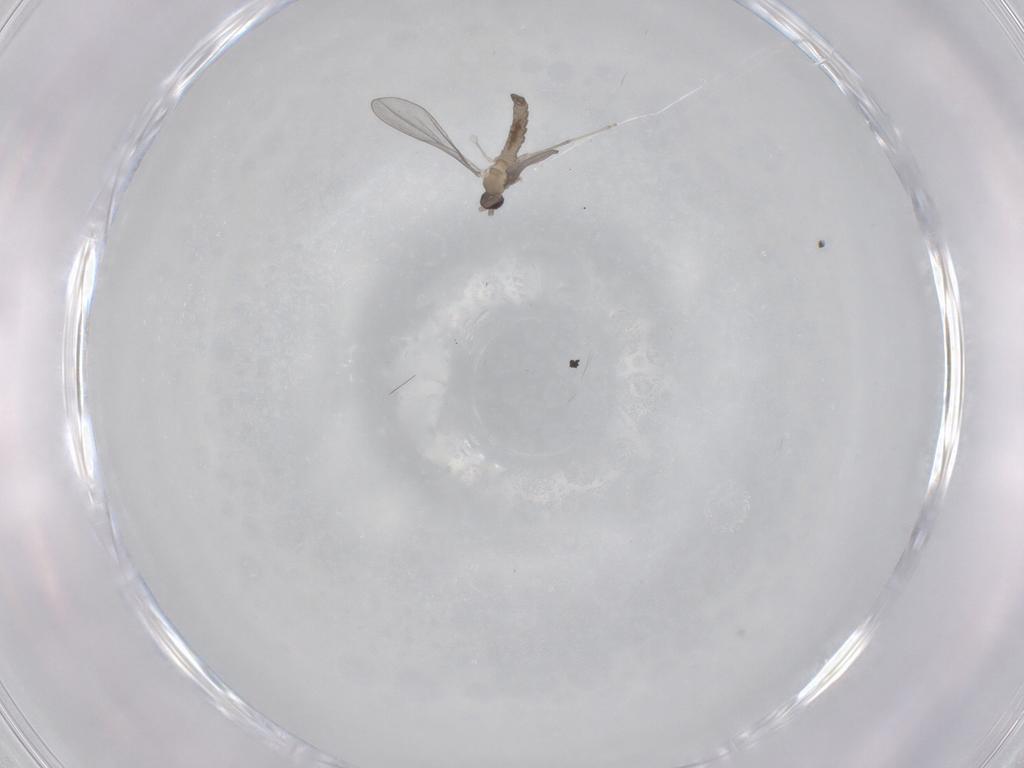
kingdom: Animalia
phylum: Arthropoda
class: Insecta
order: Diptera
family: Cecidomyiidae
